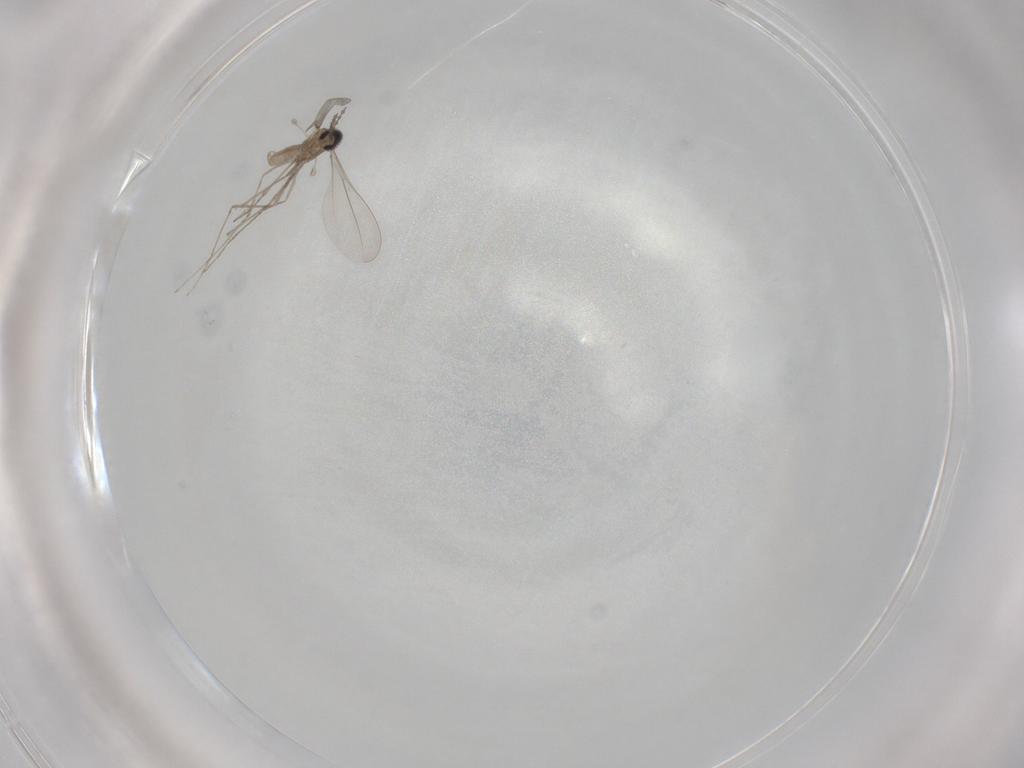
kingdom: Animalia
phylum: Arthropoda
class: Insecta
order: Diptera
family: Cecidomyiidae
